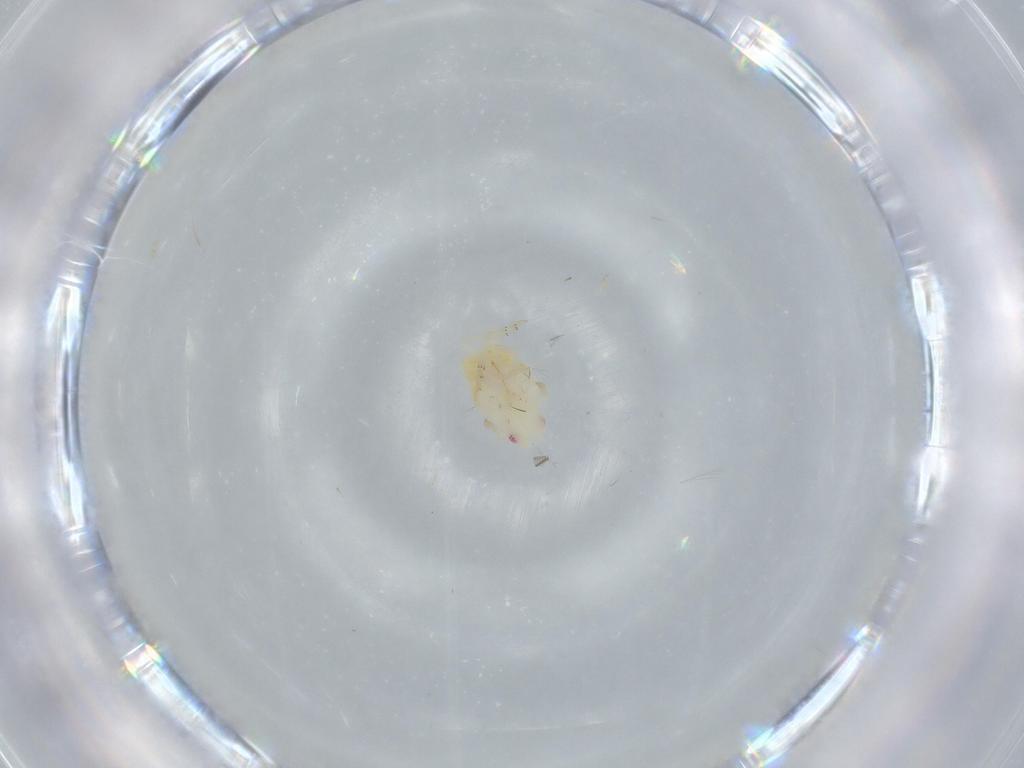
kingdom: Animalia
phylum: Arthropoda
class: Insecta
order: Hemiptera
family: Flatidae
